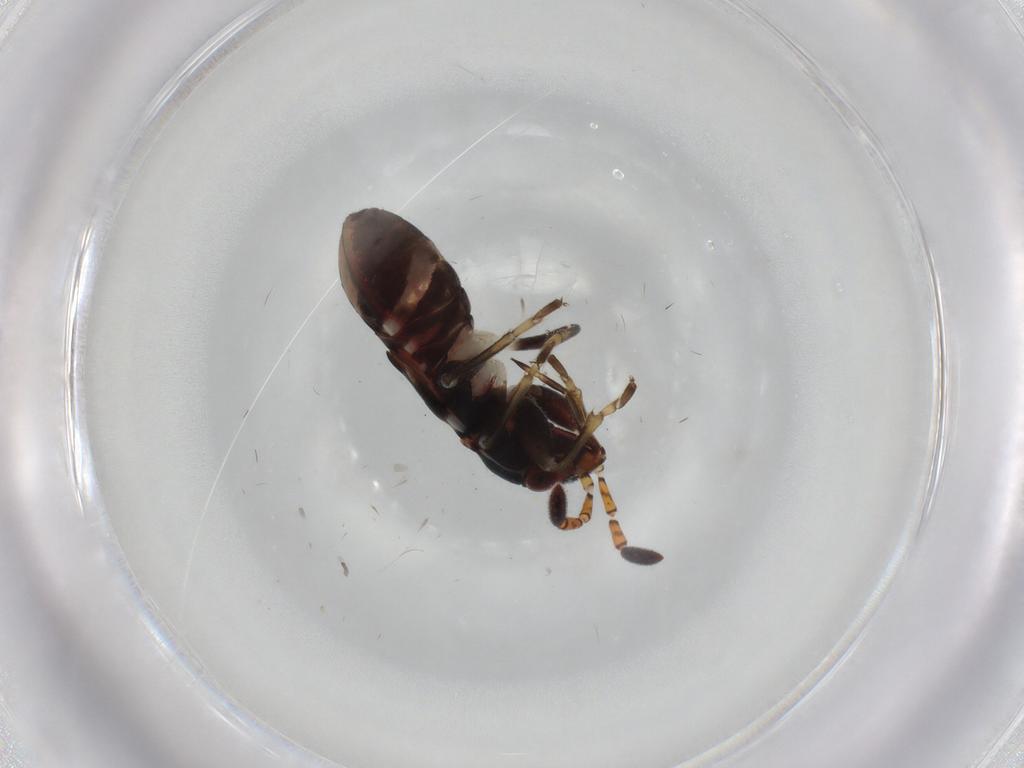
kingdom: Animalia
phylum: Arthropoda
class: Insecta
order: Hemiptera
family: Rhyparochromidae
